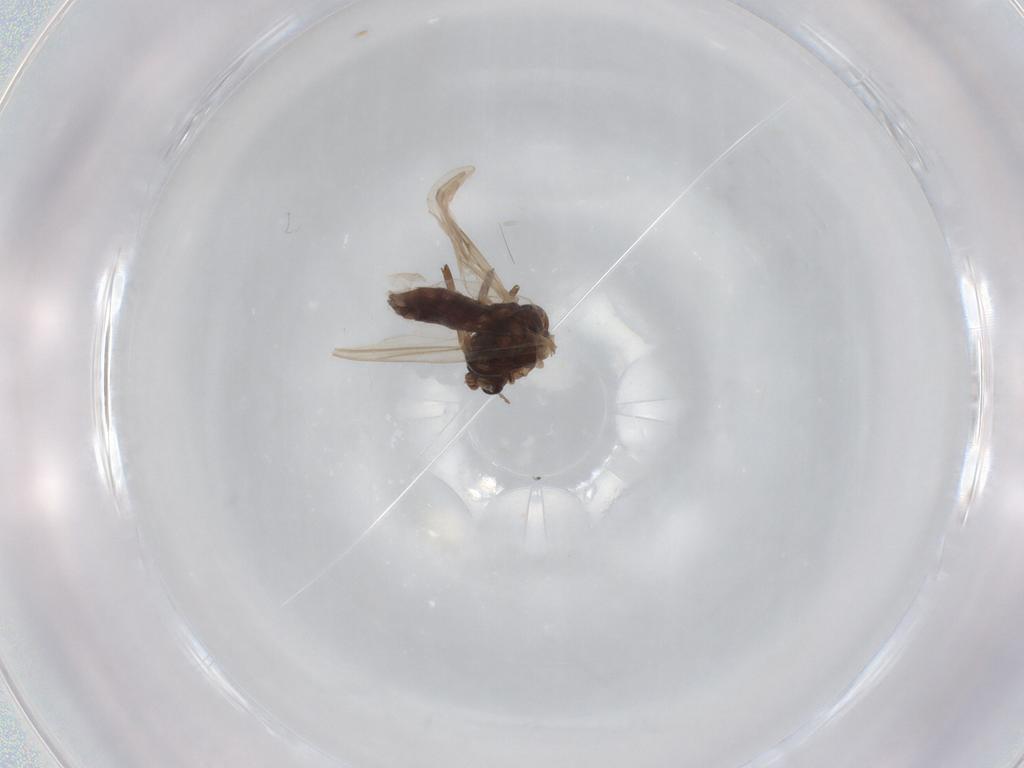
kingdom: Animalia
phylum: Arthropoda
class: Insecta
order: Diptera
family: Chironomidae
